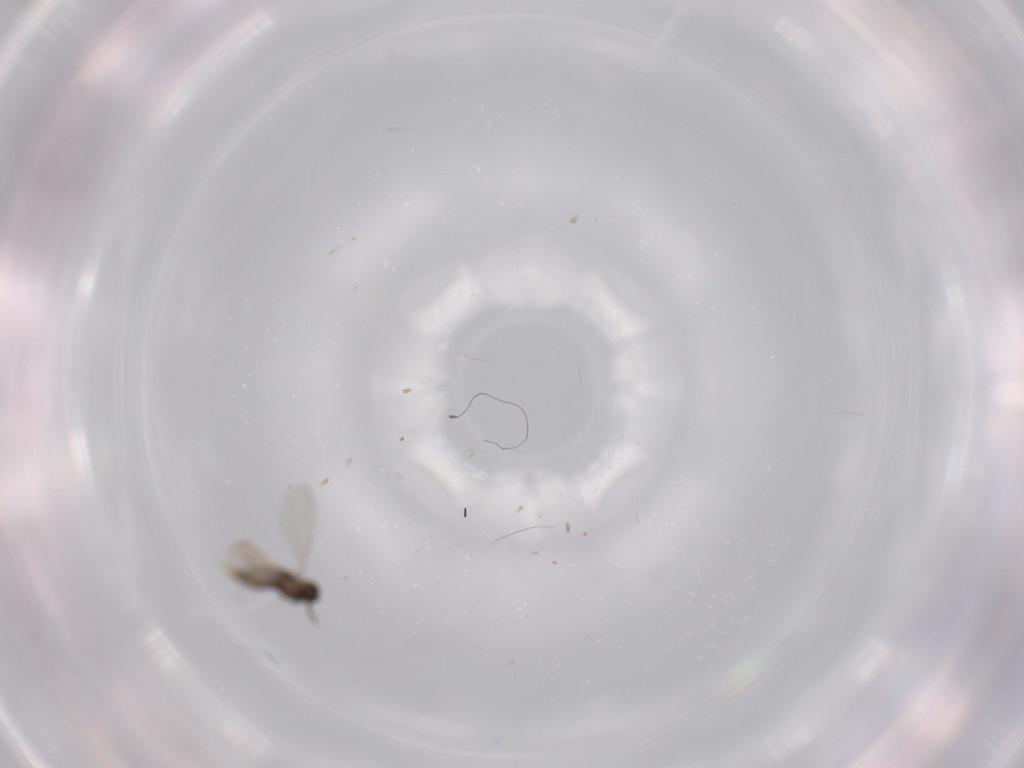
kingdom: Animalia
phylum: Arthropoda
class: Insecta
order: Diptera
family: Cecidomyiidae
